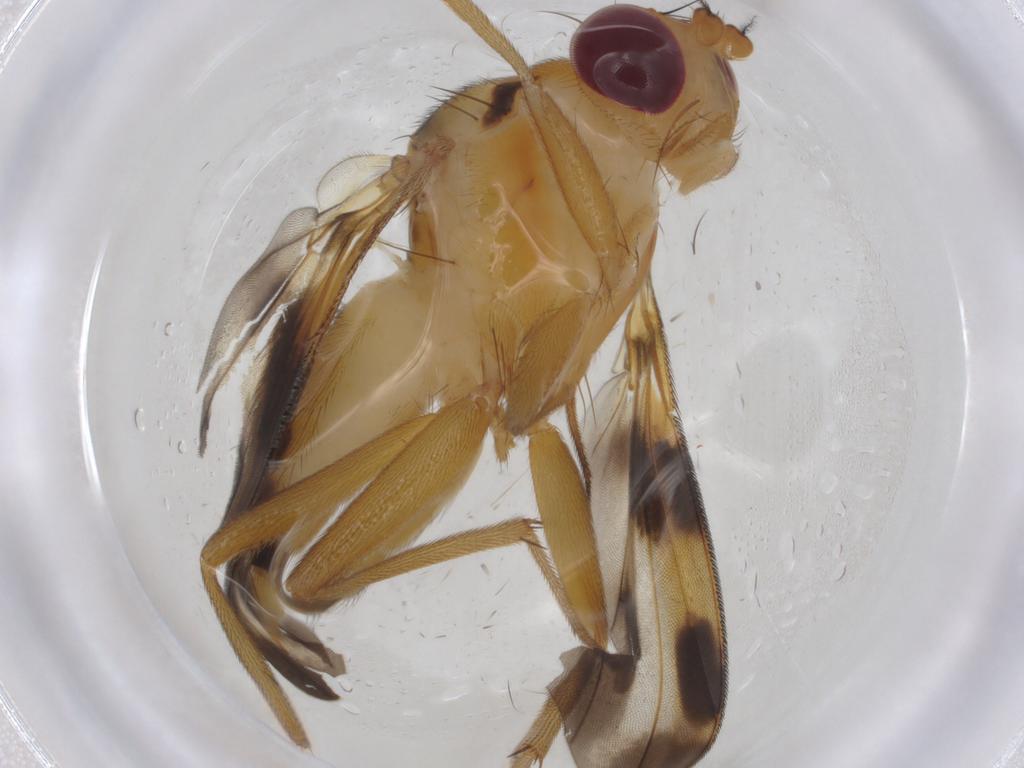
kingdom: Animalia
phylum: Arthropoda
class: Insecta
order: Diptera
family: Clusiidae
